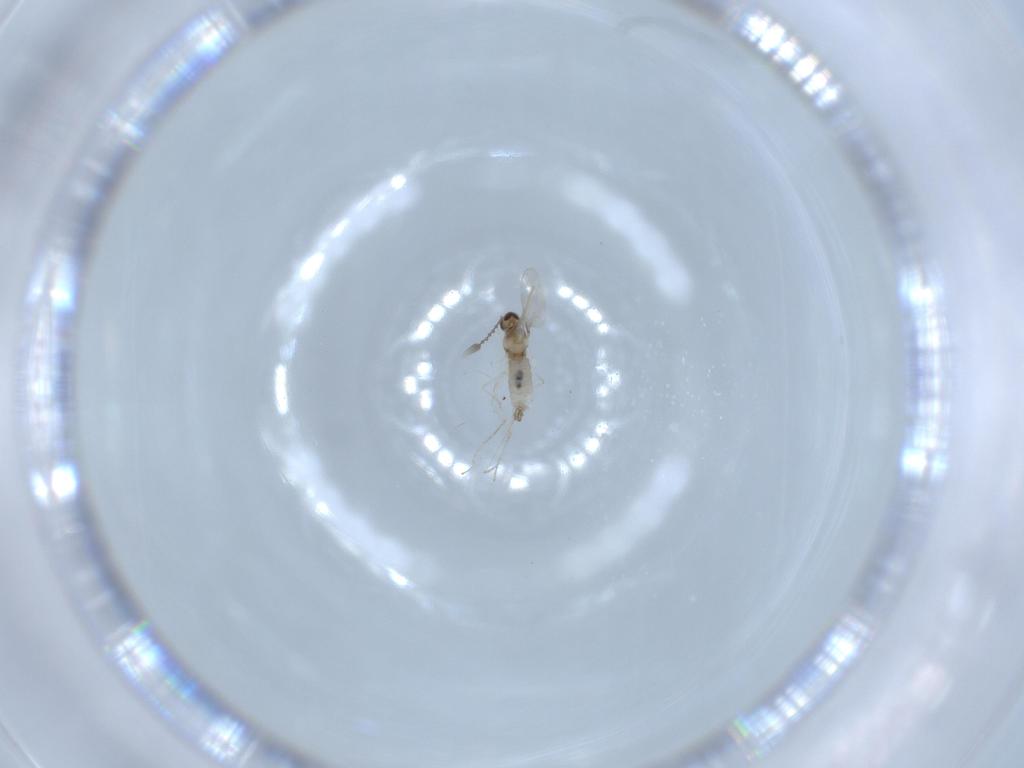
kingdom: Animalia
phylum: Arthropoda
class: Insecta
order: Diptera
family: Cecidomyiidae
